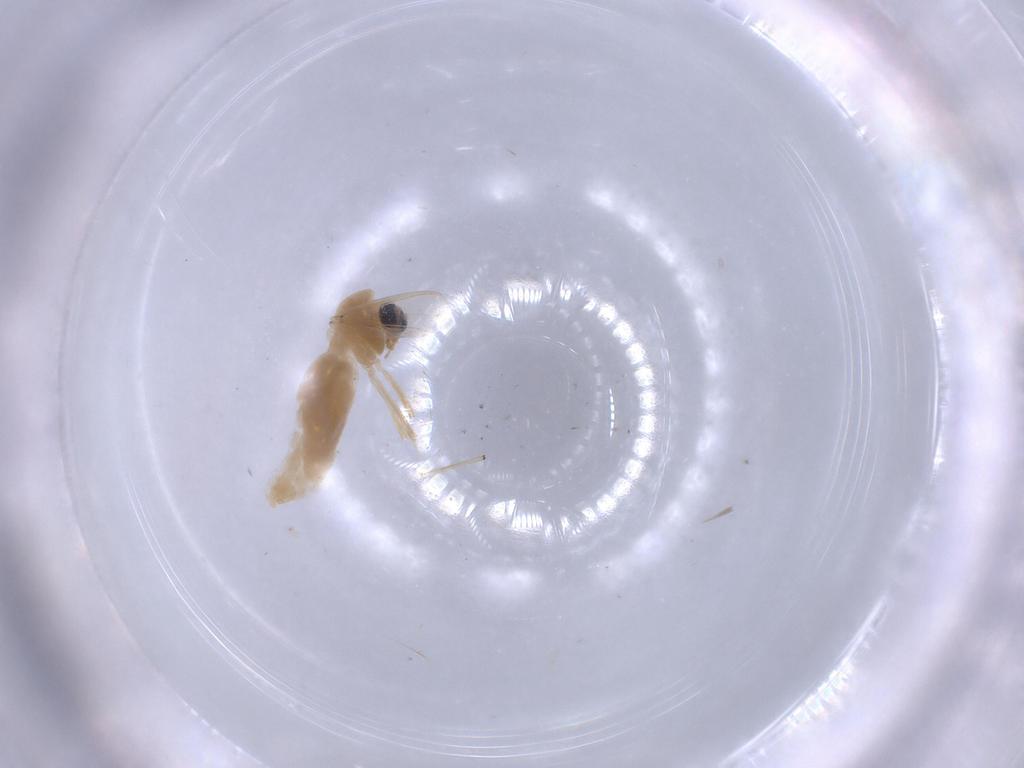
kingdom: Animalia
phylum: Arthropoda
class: Insecta
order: Diptera
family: Chironomidae
